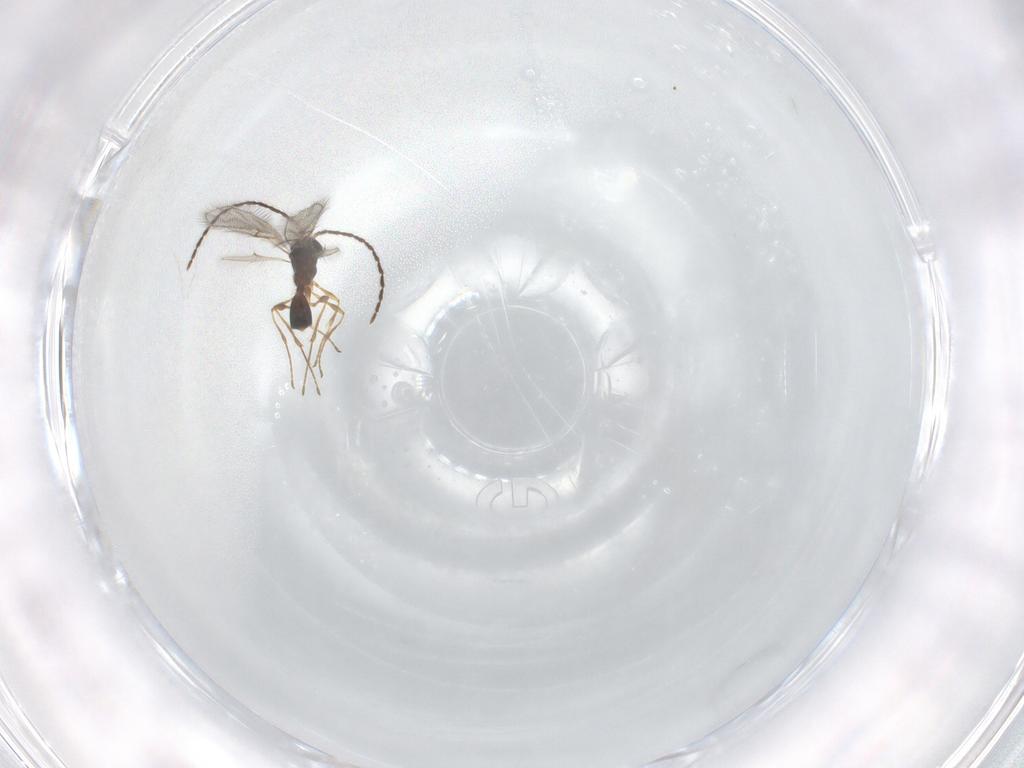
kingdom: Animalia
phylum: Arthropoda
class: Insecta
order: Hymenoptera
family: Diapriidae
